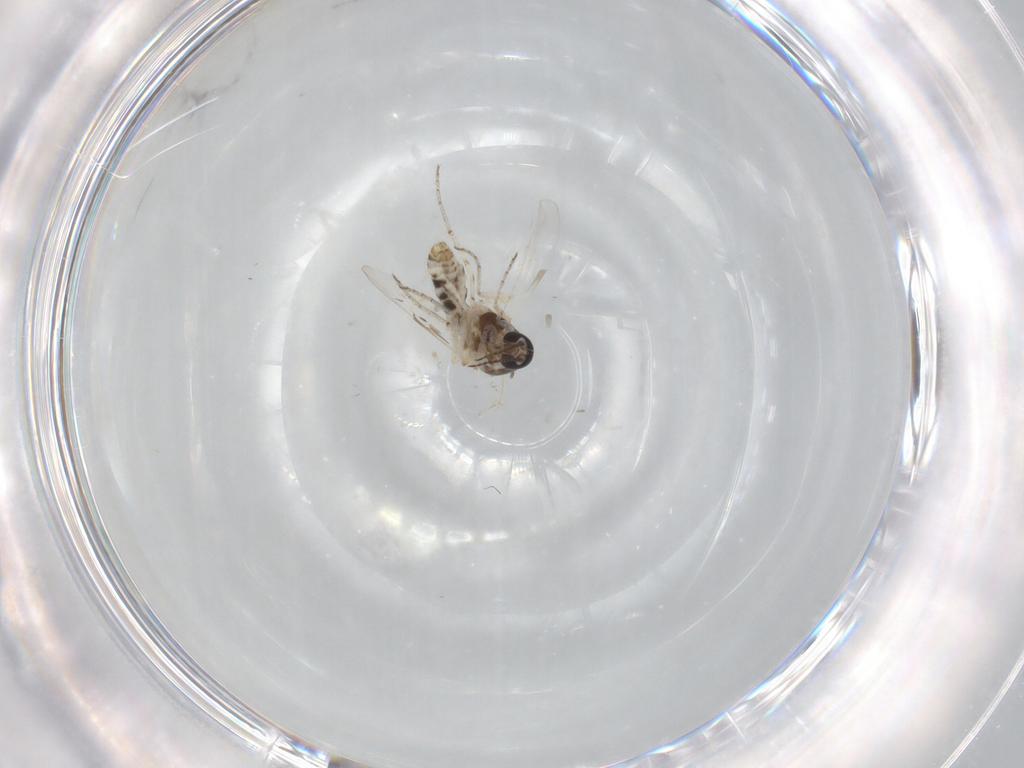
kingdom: Animalia
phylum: Arthropoda
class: Insecta
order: Diptera
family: Ceratopogonidae
